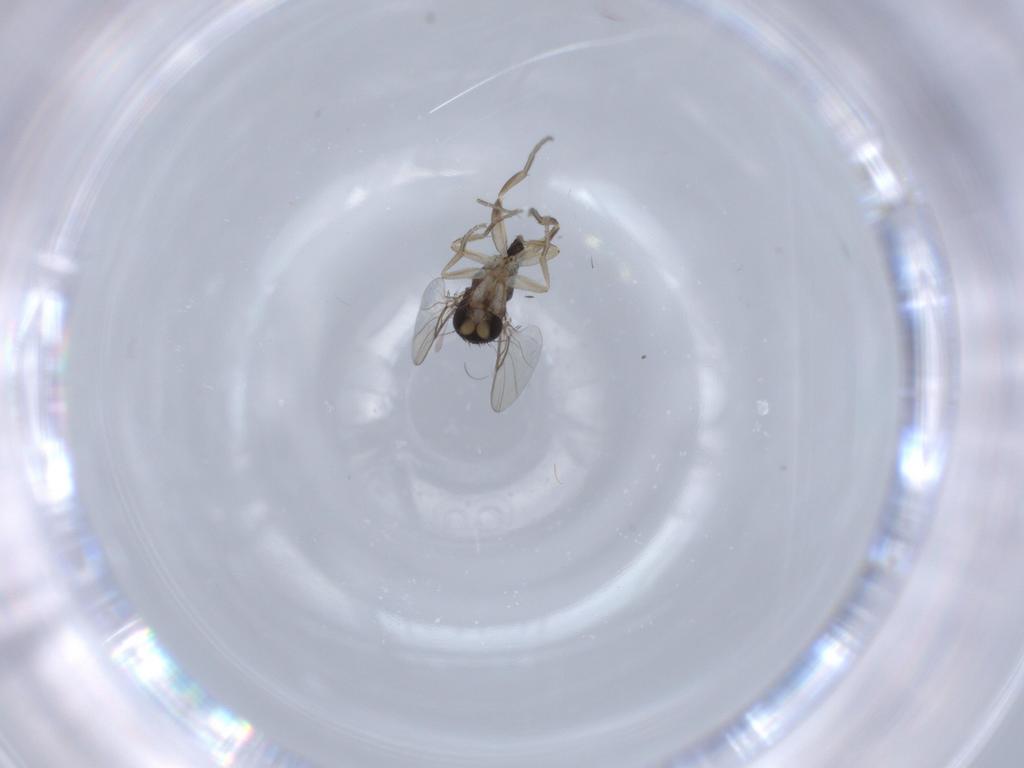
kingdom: Animalia
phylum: Arthropoda
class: Insecta
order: Diptera
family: Phoridae
